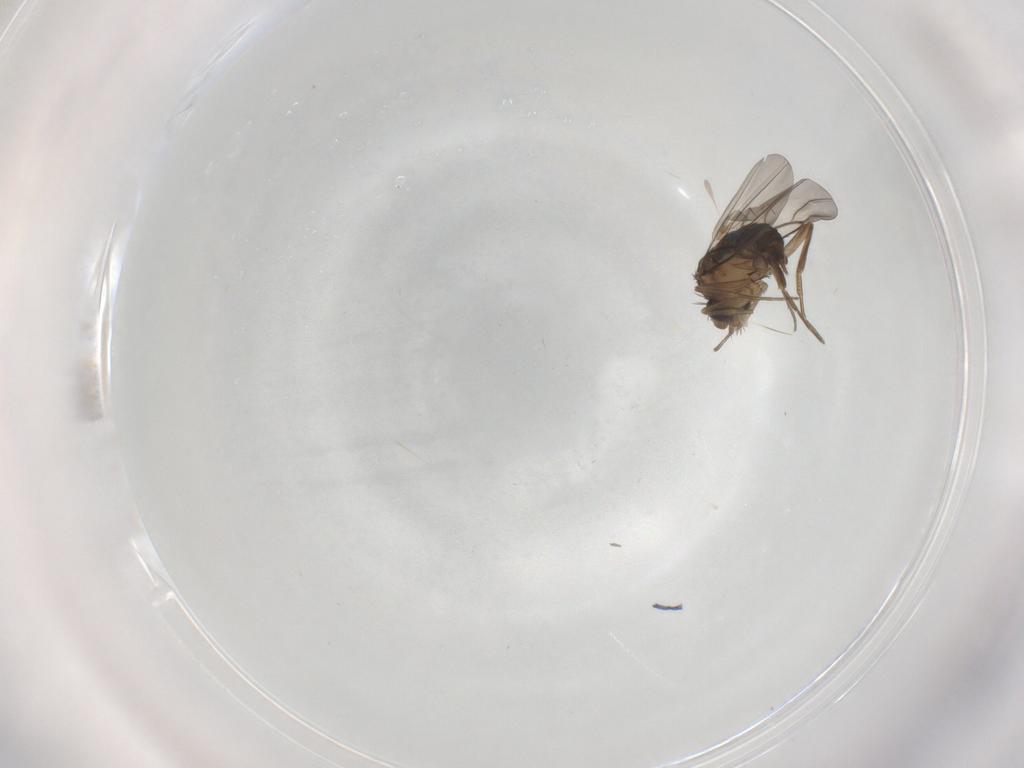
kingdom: Animalia
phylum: Arthropoda
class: Insecta
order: Diptera
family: Phoridae
